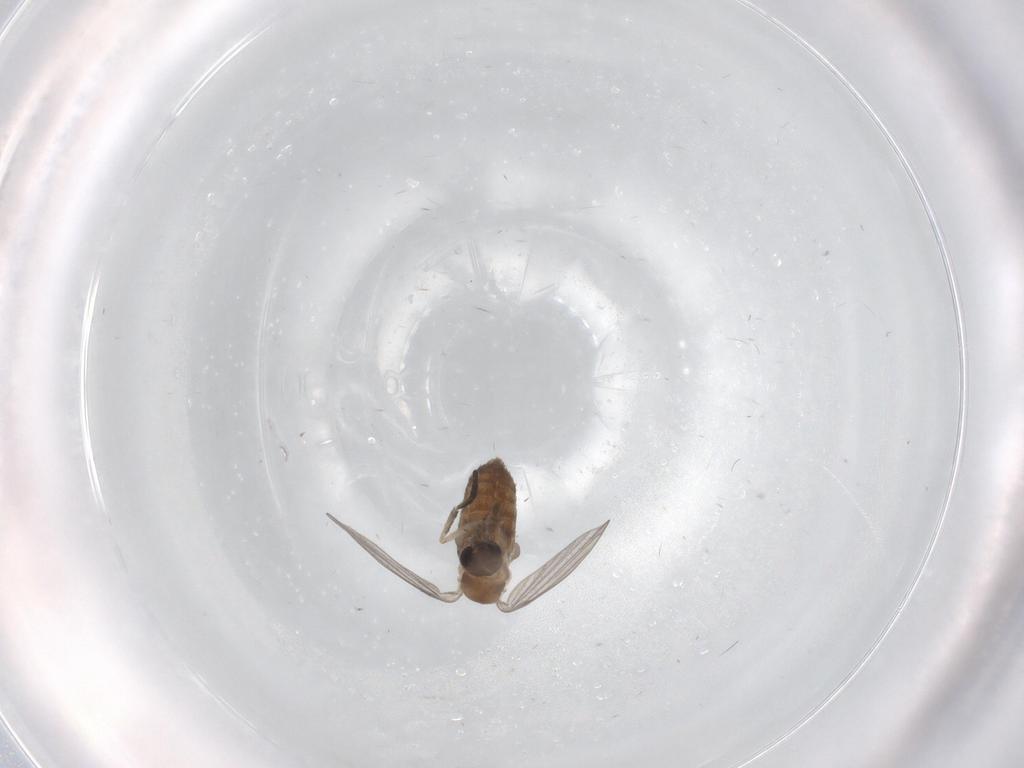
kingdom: Animalia
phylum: Arthropoda
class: Insecta
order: Diptera
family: Psychodidae
